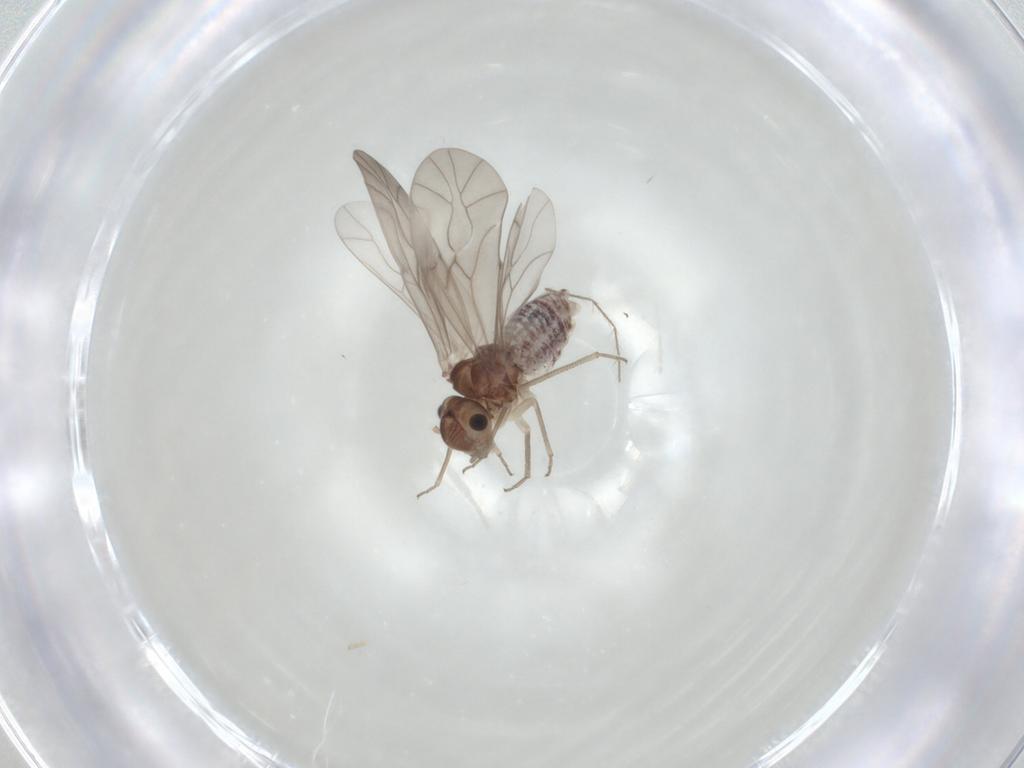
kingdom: Animalia
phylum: Arthropoda
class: Insecta
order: Psocodea
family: Peripsocidae
